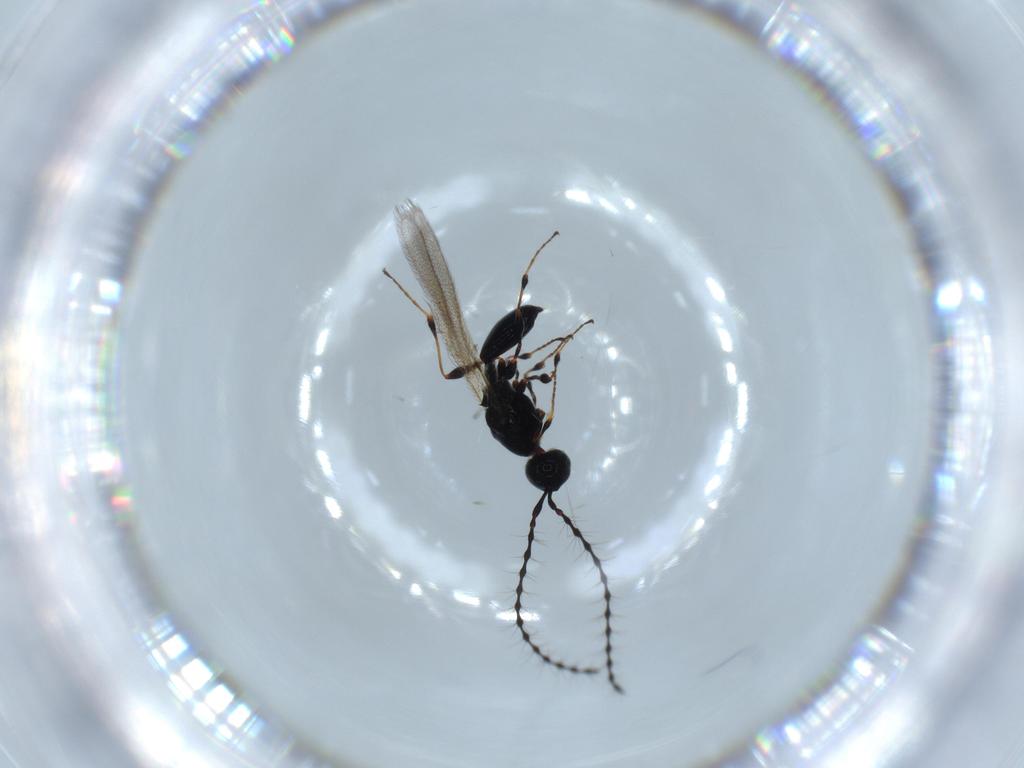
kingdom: Animalia
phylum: Arthropoda
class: Insecta
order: Hymenoptera
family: Diapriidae
